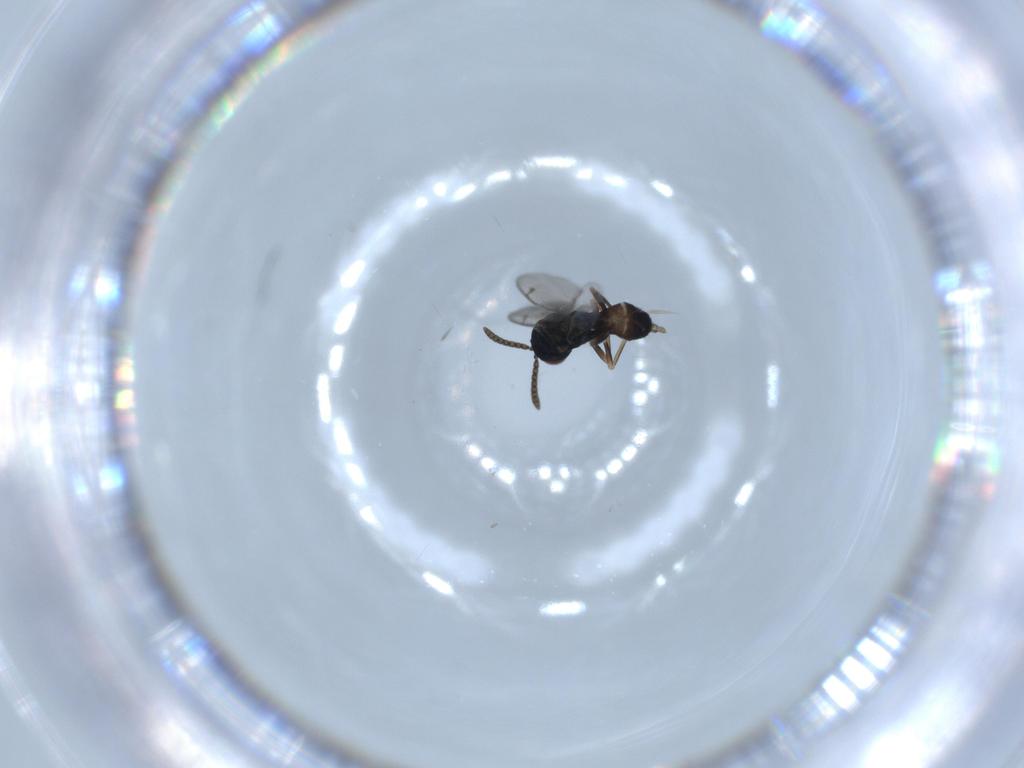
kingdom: Animalia
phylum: Arthropoda
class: Insecta
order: Hymenoptera
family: Pteromalidae
